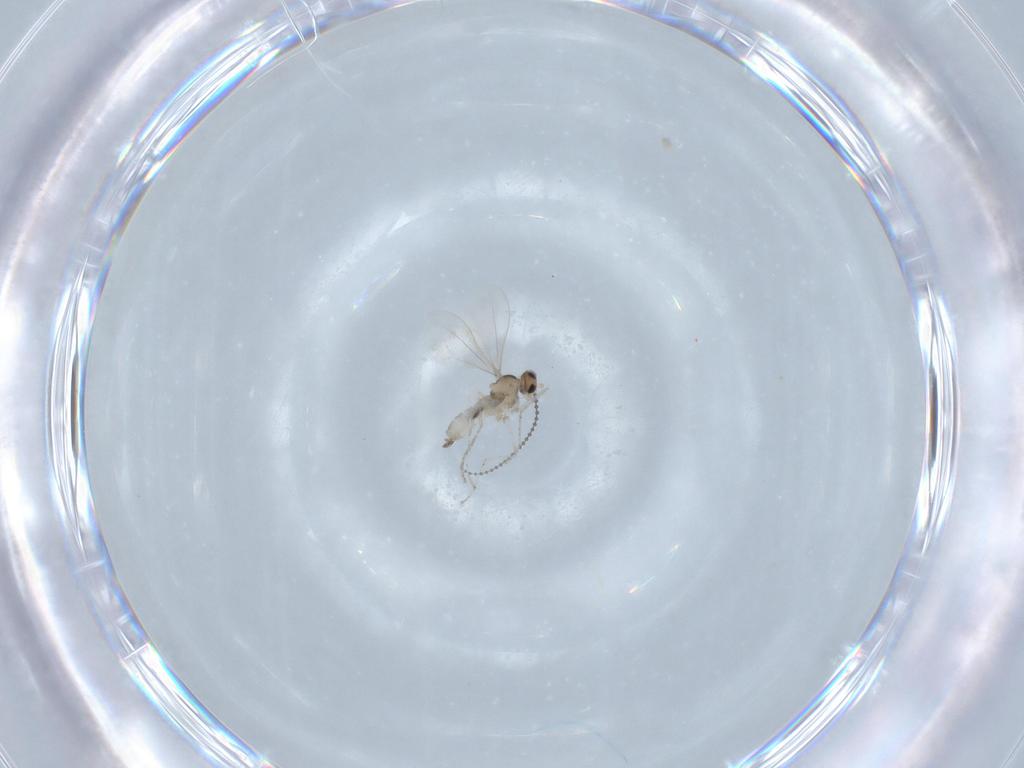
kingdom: Animalia
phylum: Arthropoda
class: Insecta
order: Diptera
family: Cecidomyiidae
